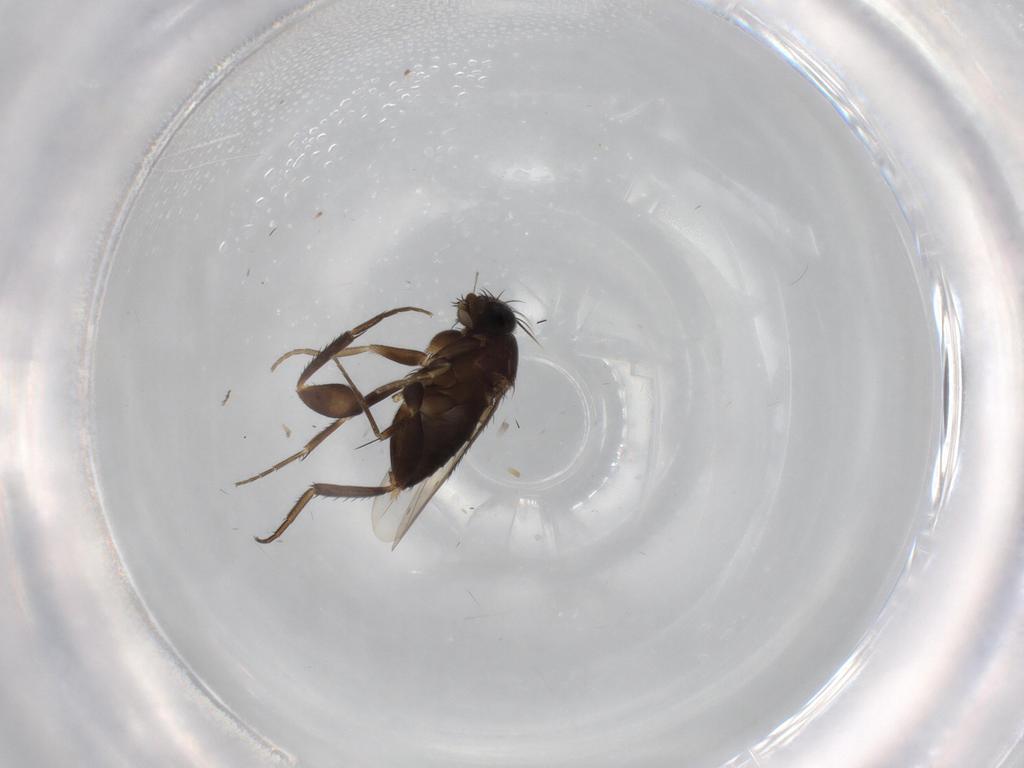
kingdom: Animalia
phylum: Arthropoda
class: Insecta
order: Diptera
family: Phoridae
